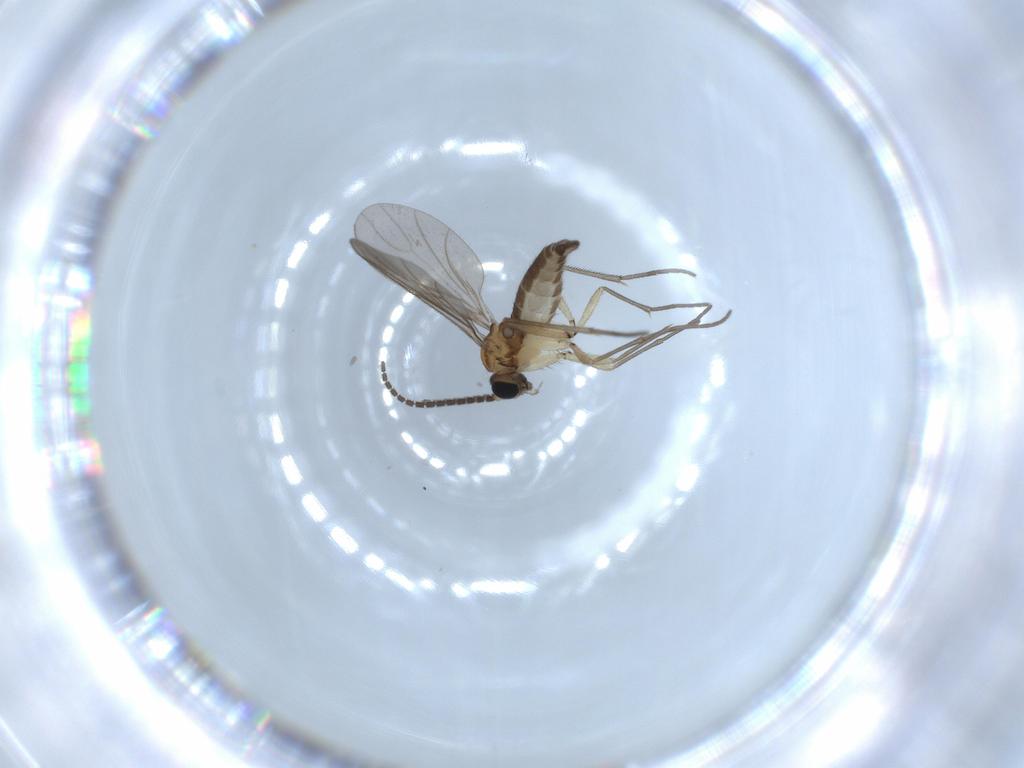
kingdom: Animalia
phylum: Arthropoda
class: Insecta
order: Diptera
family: Sciaridae
